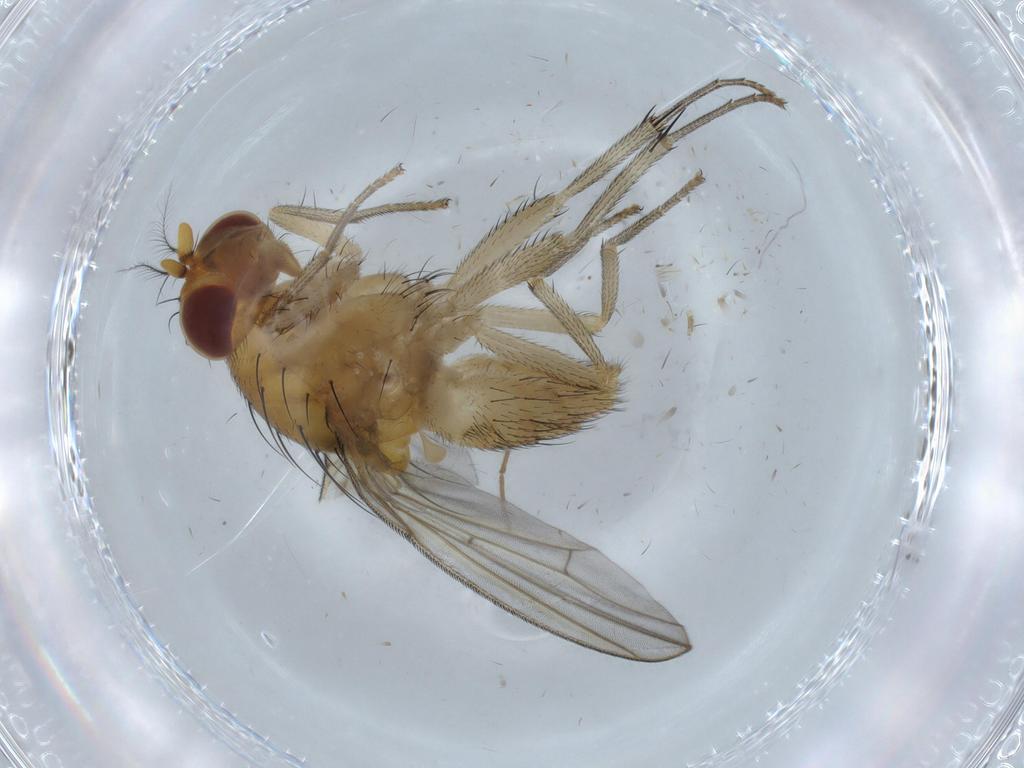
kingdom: Animalia
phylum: Arthropoda
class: Insecta
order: Diptera
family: Cecidomyiidae
